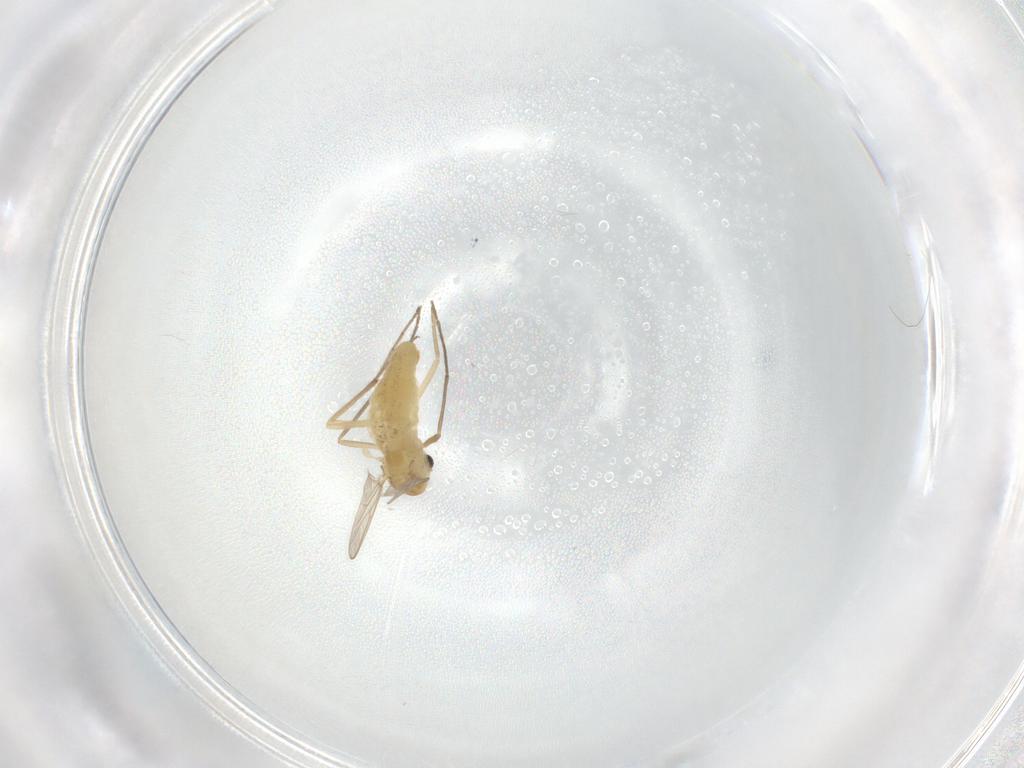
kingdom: Animalia
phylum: Arthropoda
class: Insecta
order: Diptera
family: Chironomidae
